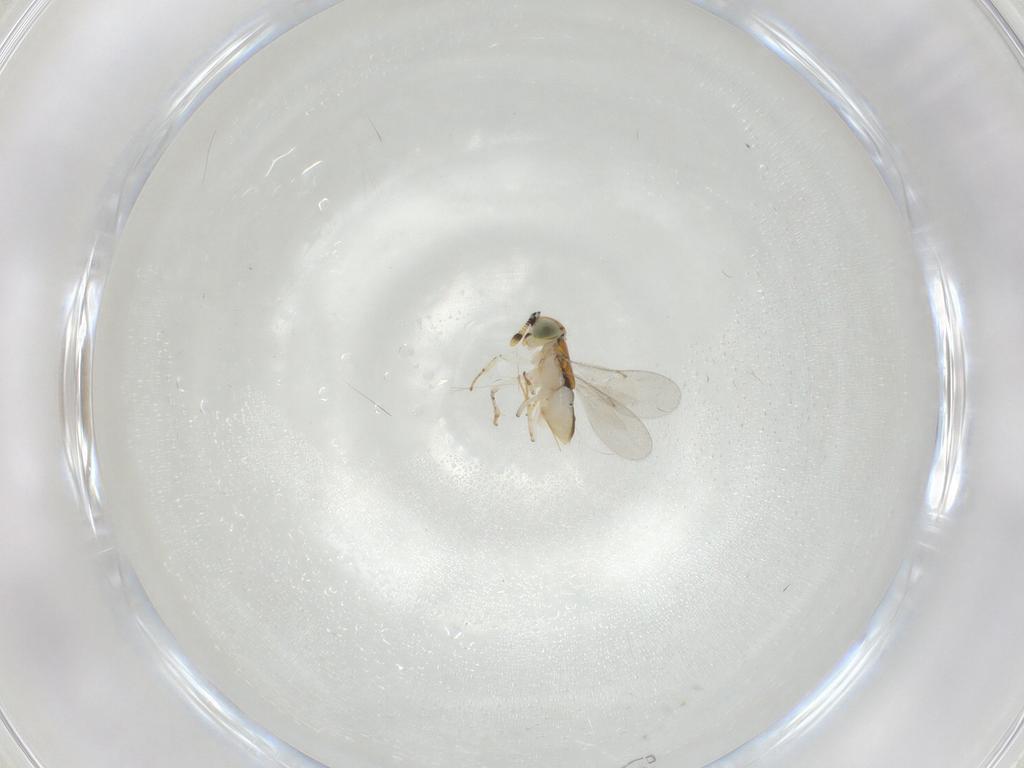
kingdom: Animalia
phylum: Arthropoda
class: Insecta
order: Diptera
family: Cecidomyiidae
